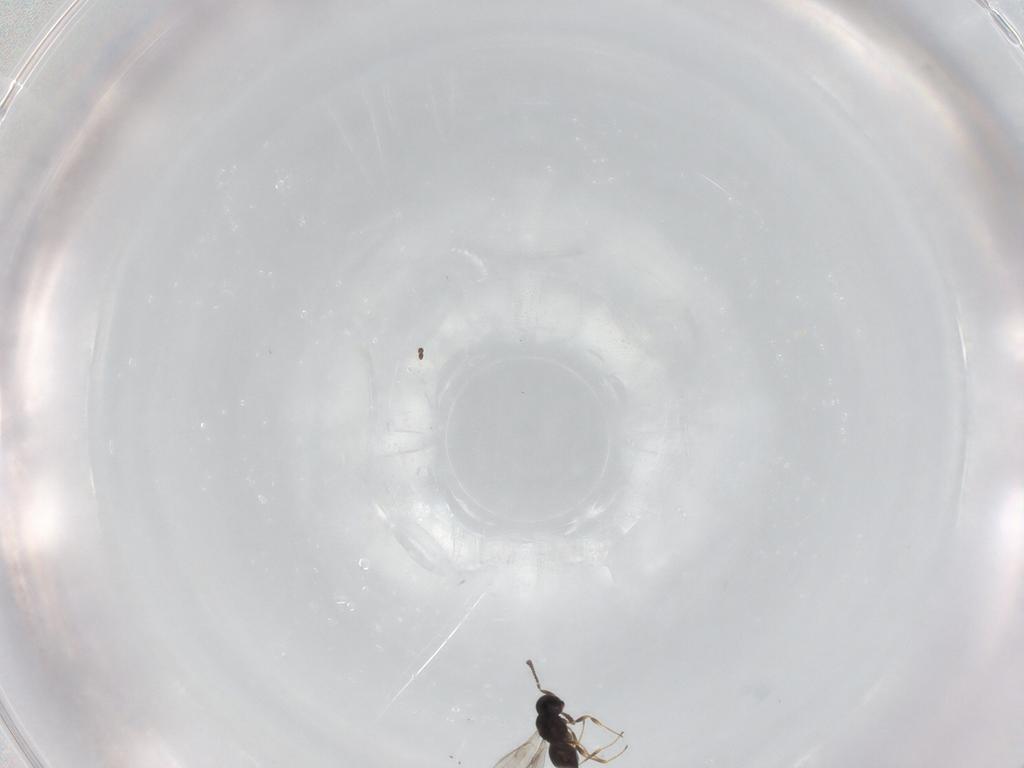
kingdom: Animalia
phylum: Arthropoda
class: Insecta
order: Hymenoptera
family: Scelionidae
